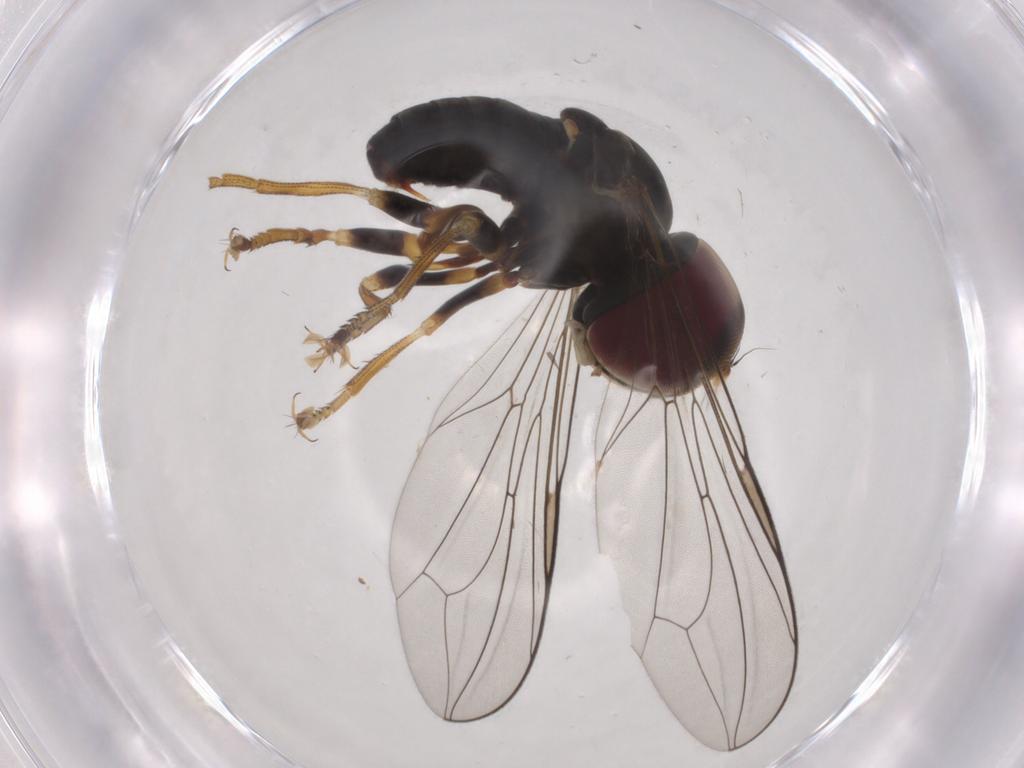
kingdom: Animalia
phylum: Arthropoda
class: Insecta
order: Diptera
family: Pipunculidae
